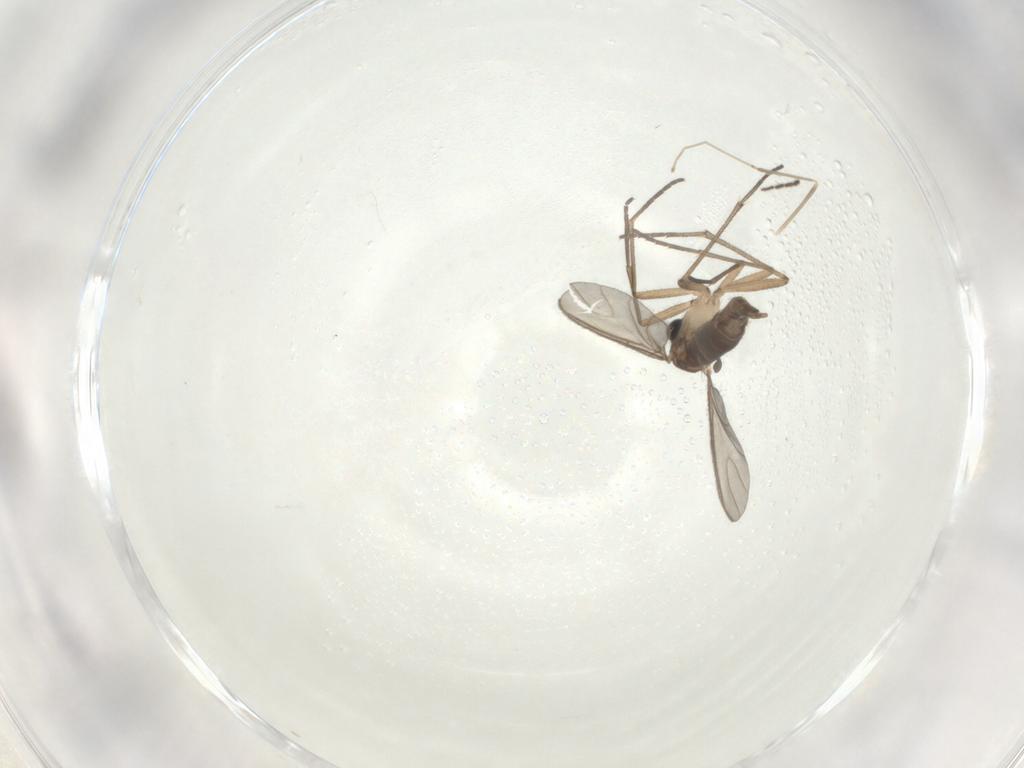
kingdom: Animalia
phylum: Arthropoda
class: Insecta
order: Diptera
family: Sciaridae
